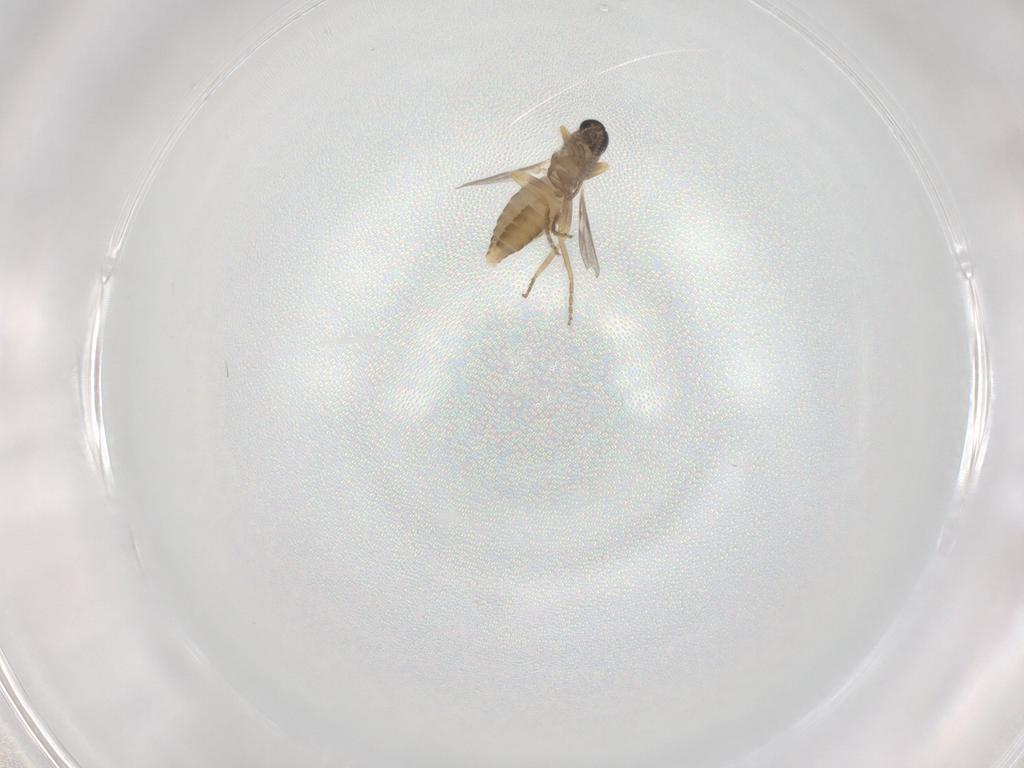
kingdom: Animalia
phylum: Arthropoda
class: Insecta
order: Diptera
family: Ceratopogonidae
